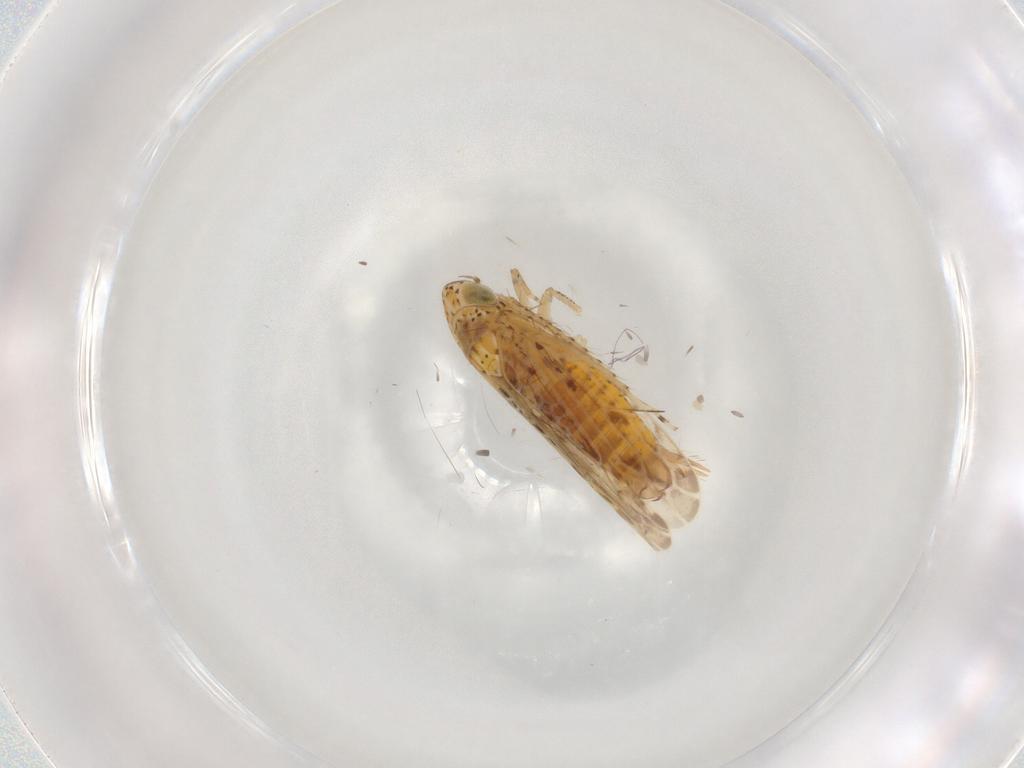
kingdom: Animalia
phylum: Arthropoda
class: Insecta
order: Hemiptera
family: Cicadellidae
